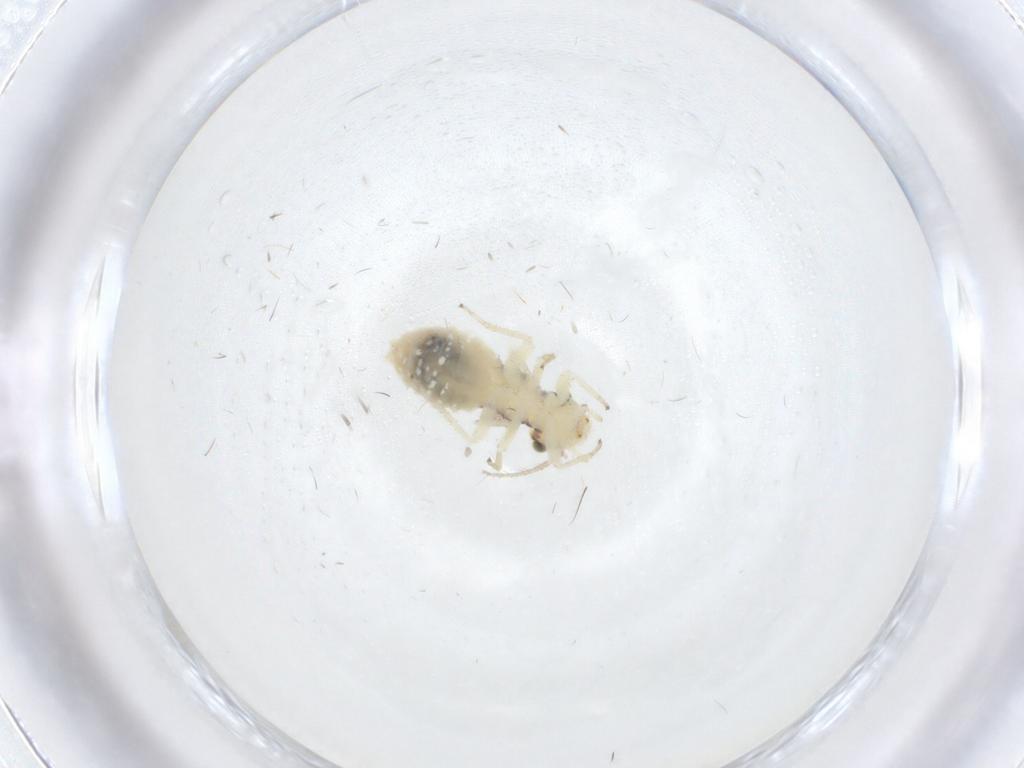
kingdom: Animalia
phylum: Arthropoda
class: Insecta
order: Psocodea
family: Pseudocaeciliidae
